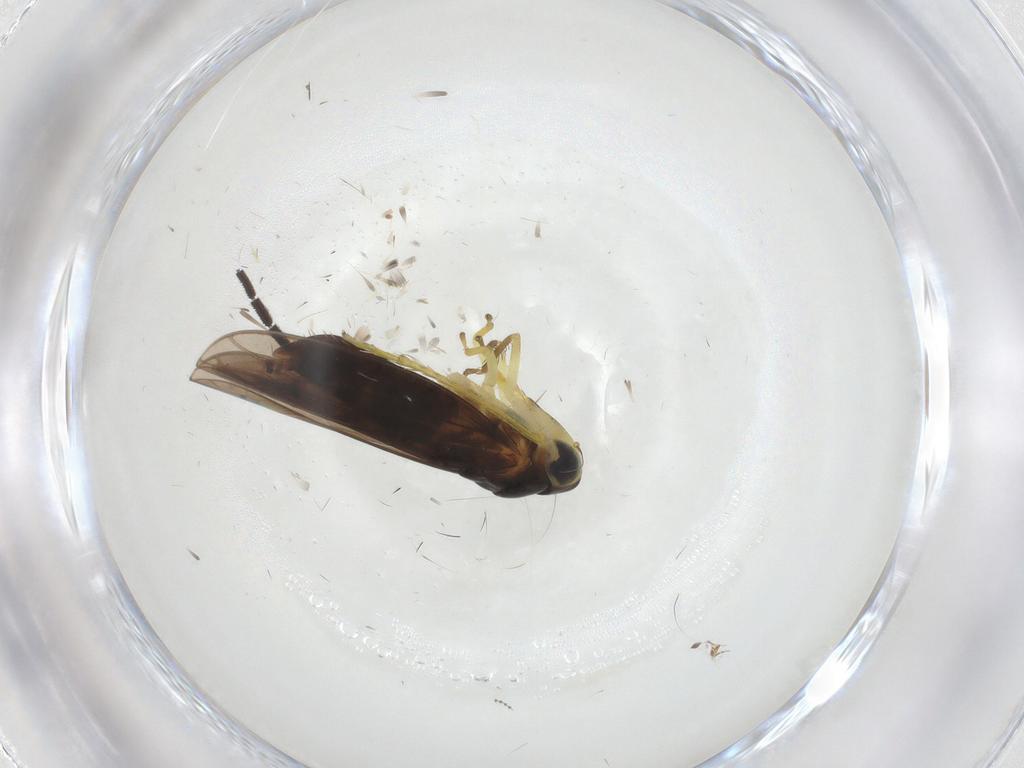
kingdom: Animalia
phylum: Arthropoda
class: Insecta
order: Hemiptera
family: Cicadellidae
